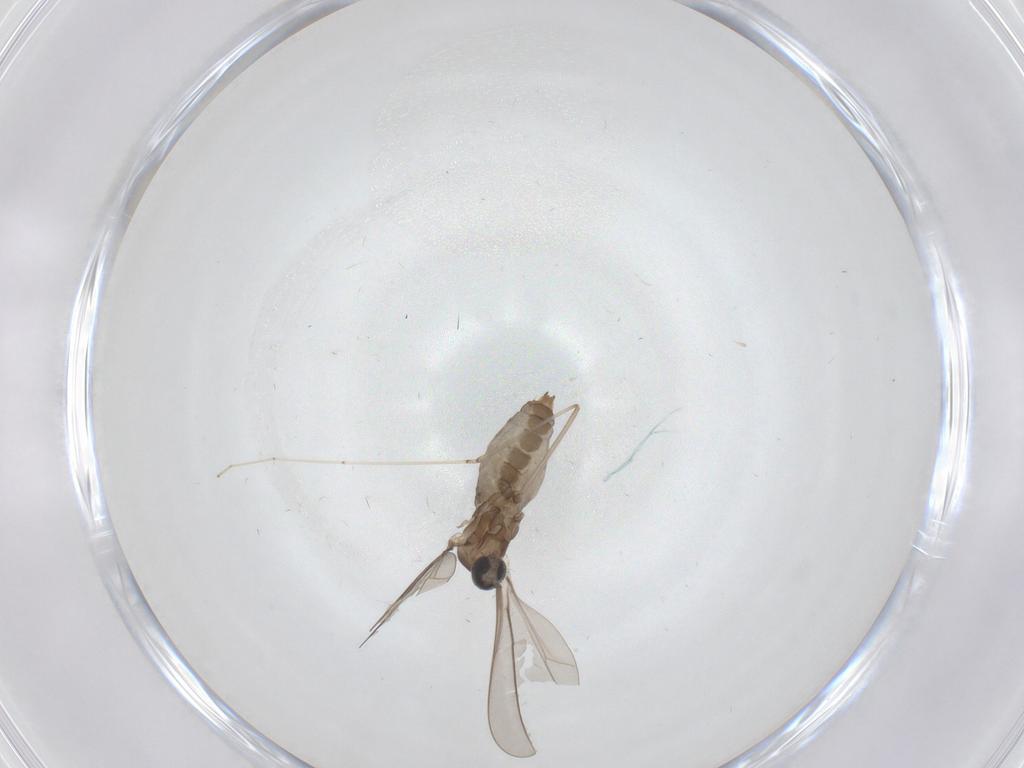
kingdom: Animalia
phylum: Arthropoda
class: Insecta
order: Diptera
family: Cecidomyiidae
